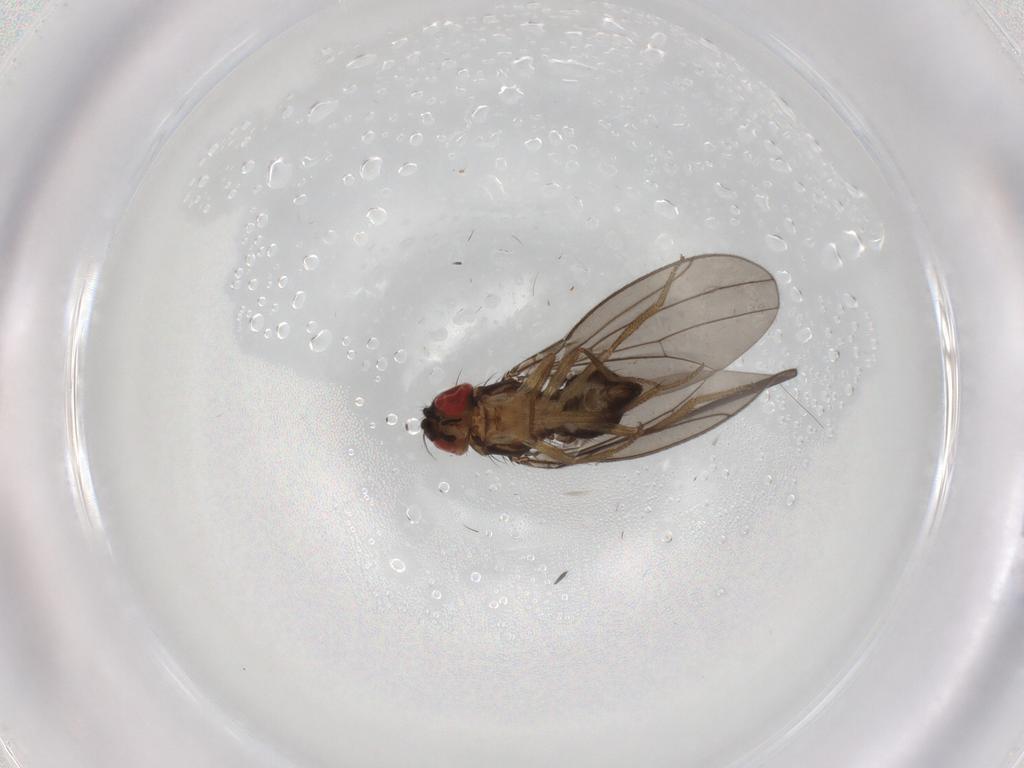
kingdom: Animalia
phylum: Arthropoda
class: Insecta
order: Diptera
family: Drosophilidae
